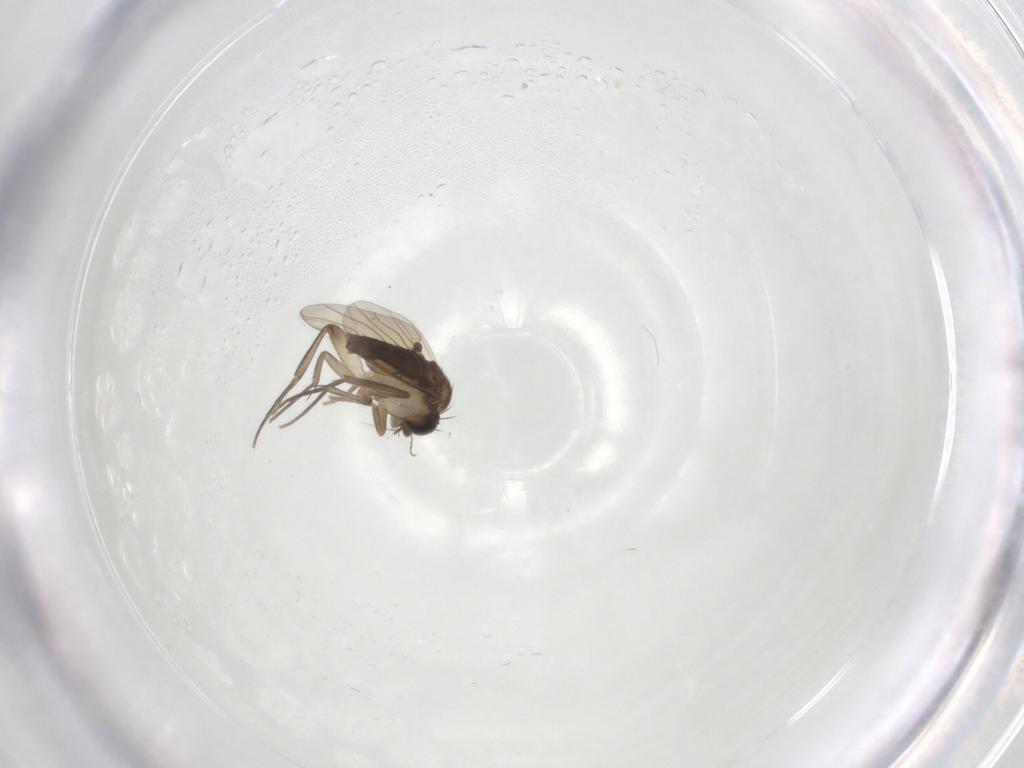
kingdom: Animalia
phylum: Arthropoda
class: Insecta
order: Diptera
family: Phoridae
